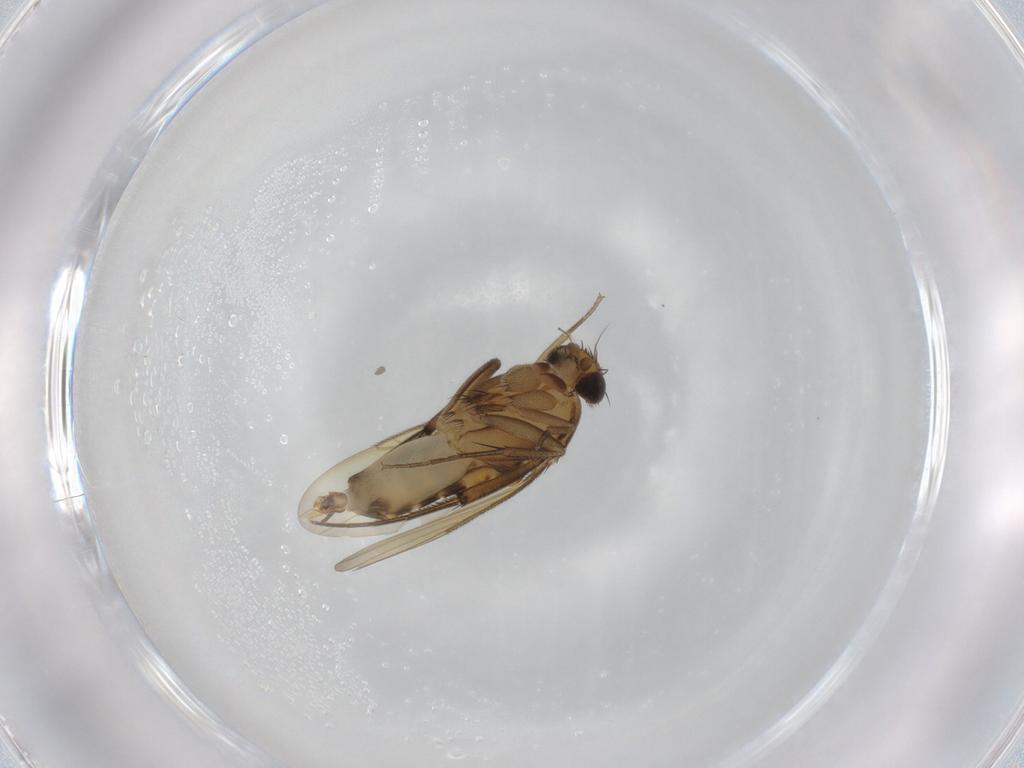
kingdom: Animalia
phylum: Arthropoda
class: Insecta
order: Diptera
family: Phoridae
